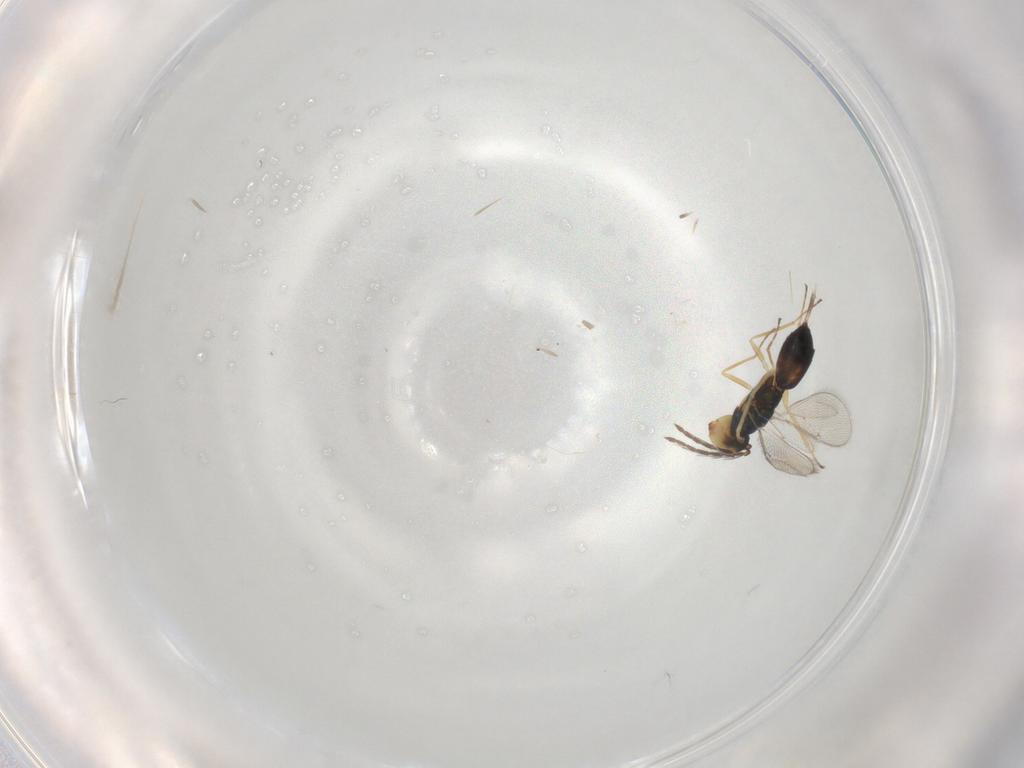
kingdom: Animalia
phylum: Arthropoda
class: Insecta
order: Hymenoptera
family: Eulophidae
